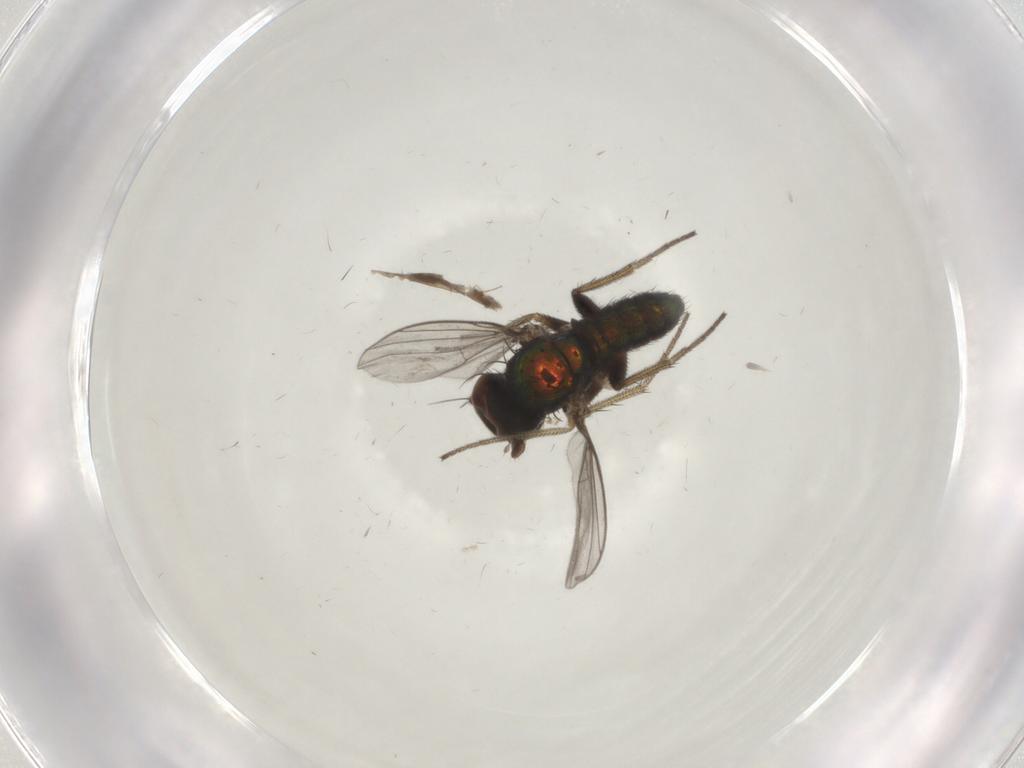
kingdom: Animalia
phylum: Arthropoda
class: Insecta
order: Diptera
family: Dolichopodidae
